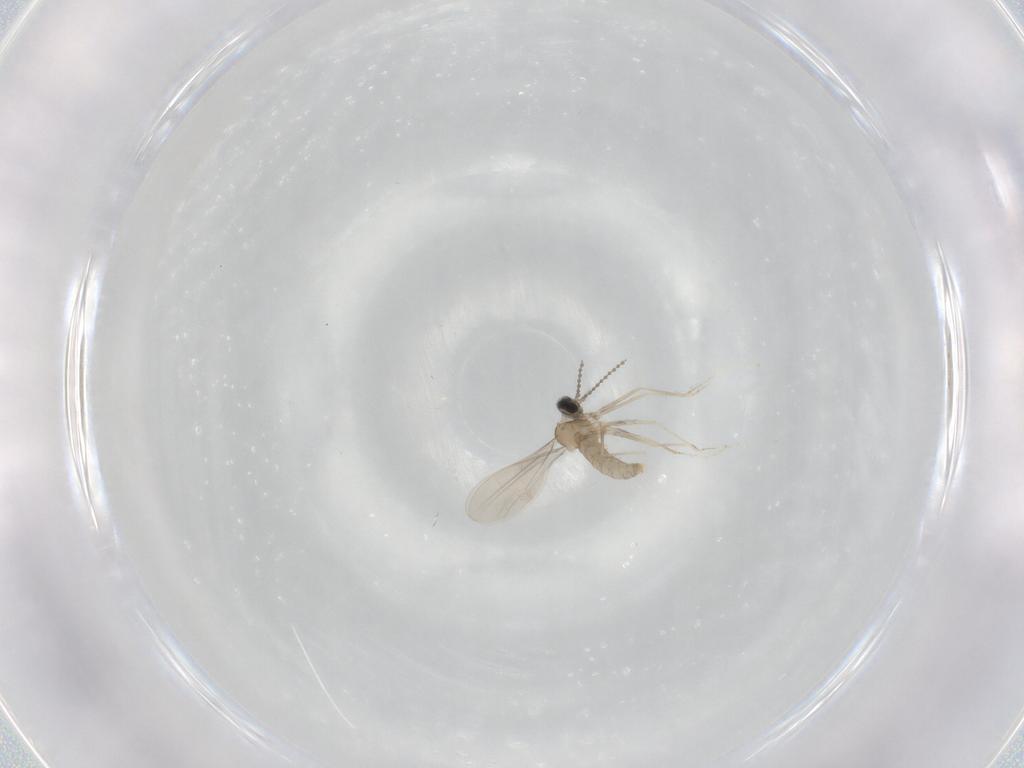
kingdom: Animalia
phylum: Arthropoda
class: Insecta
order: Diptera
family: Cecidomyiidae
